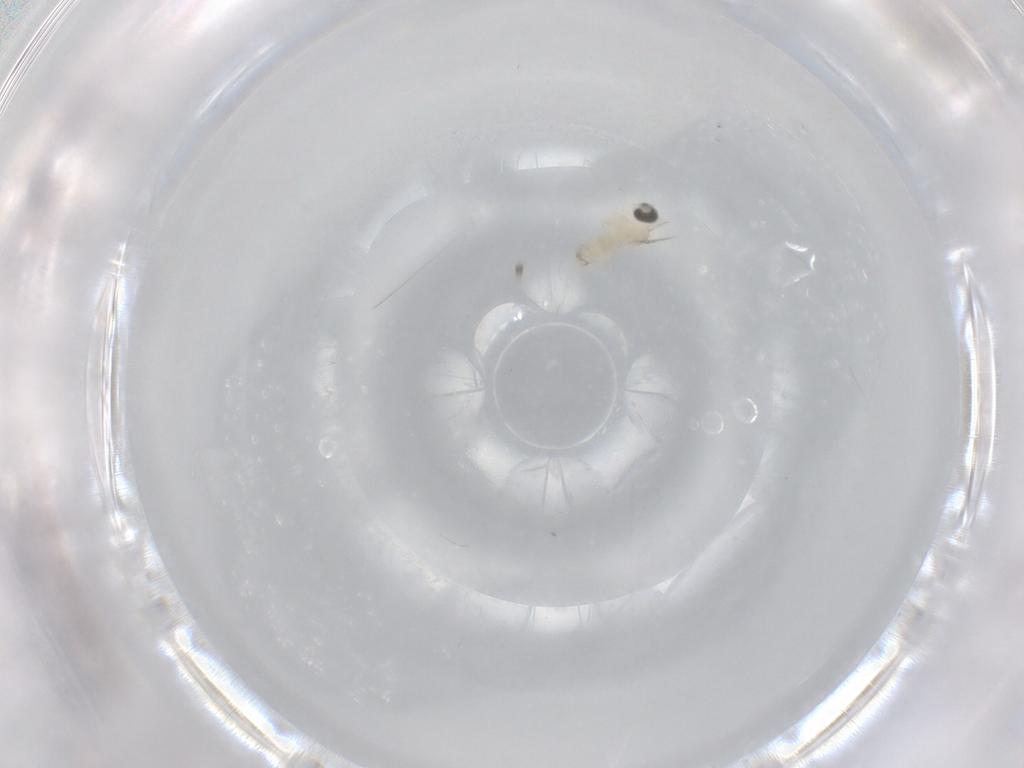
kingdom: Animalia
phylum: Arthropoda
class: Insecta
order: Diptera
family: Cecidomyiidae
